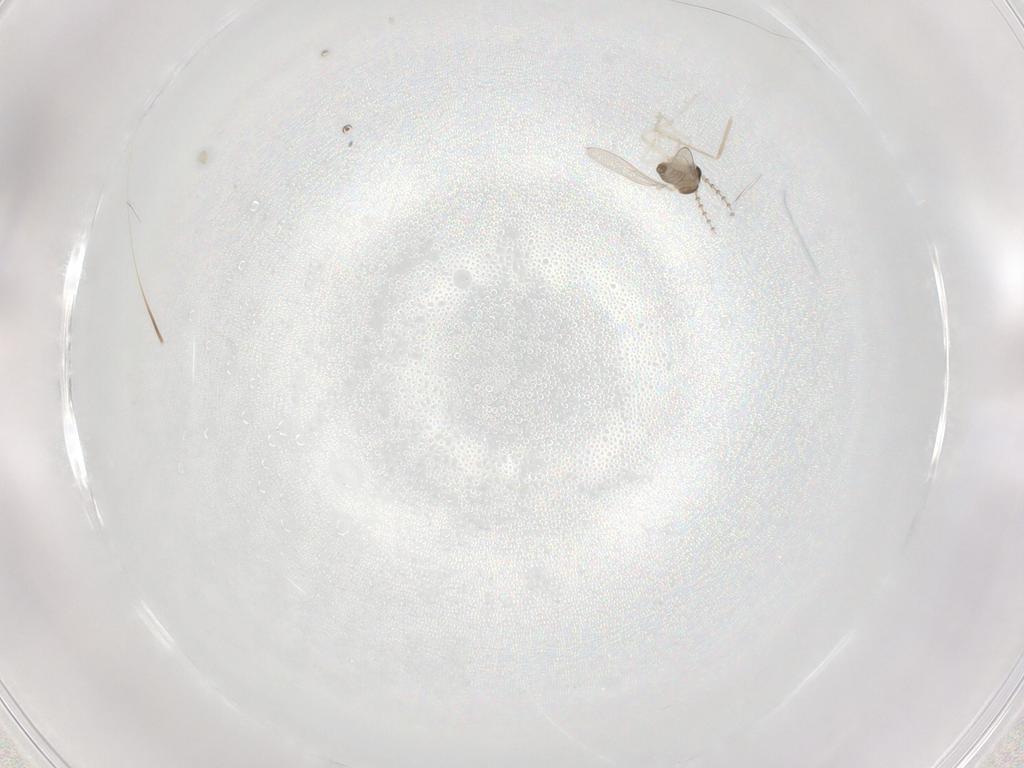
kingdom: Animalia
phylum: Arthropoda
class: Insecta
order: Diptera
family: Cecidomyiidae
